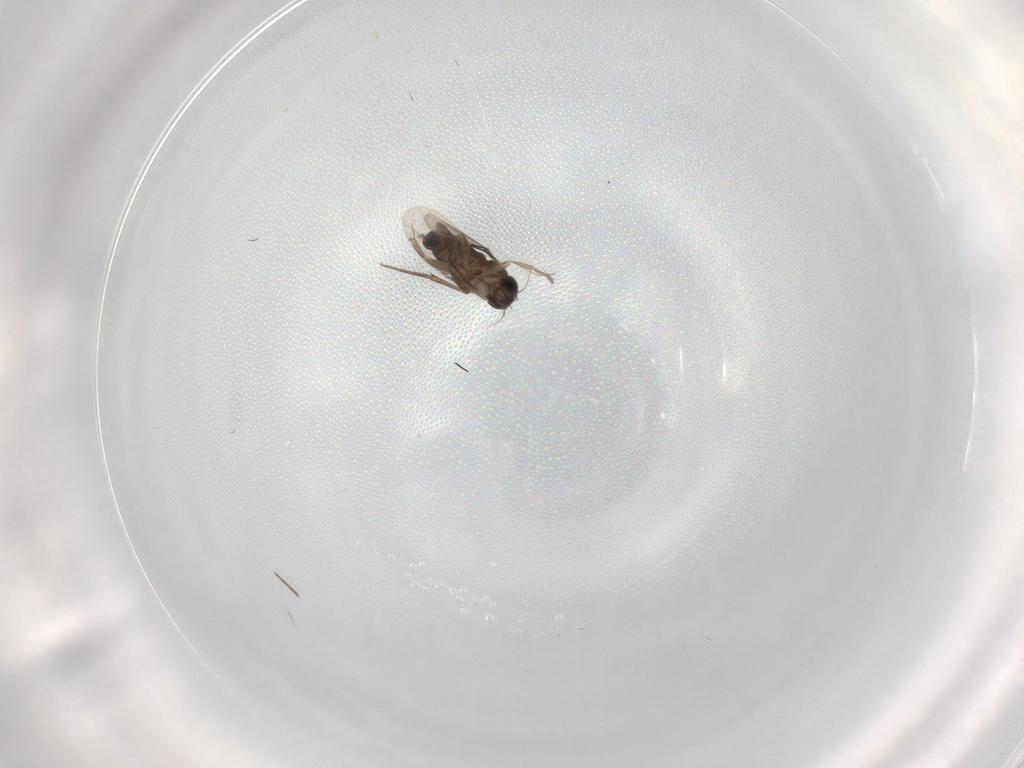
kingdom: Animalia
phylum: Arthropoda
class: Insecta
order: Diptera
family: Phoridae
